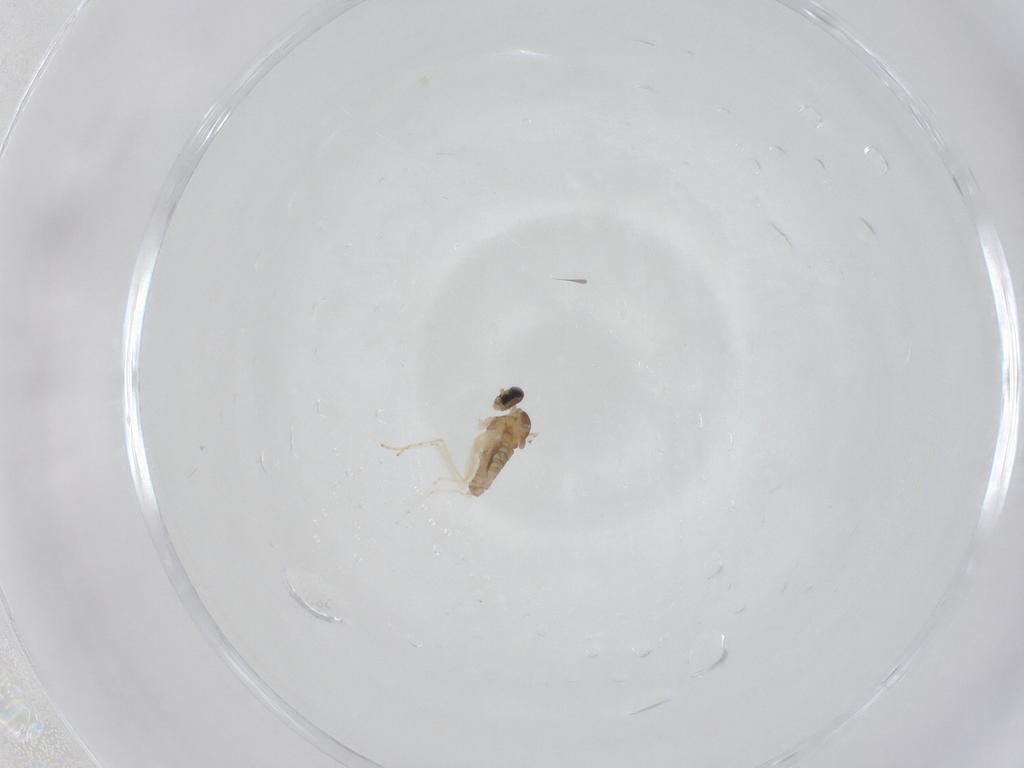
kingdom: Animalia
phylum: Arthropoda
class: Insecta
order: Diptera
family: Cecidomyiidae
